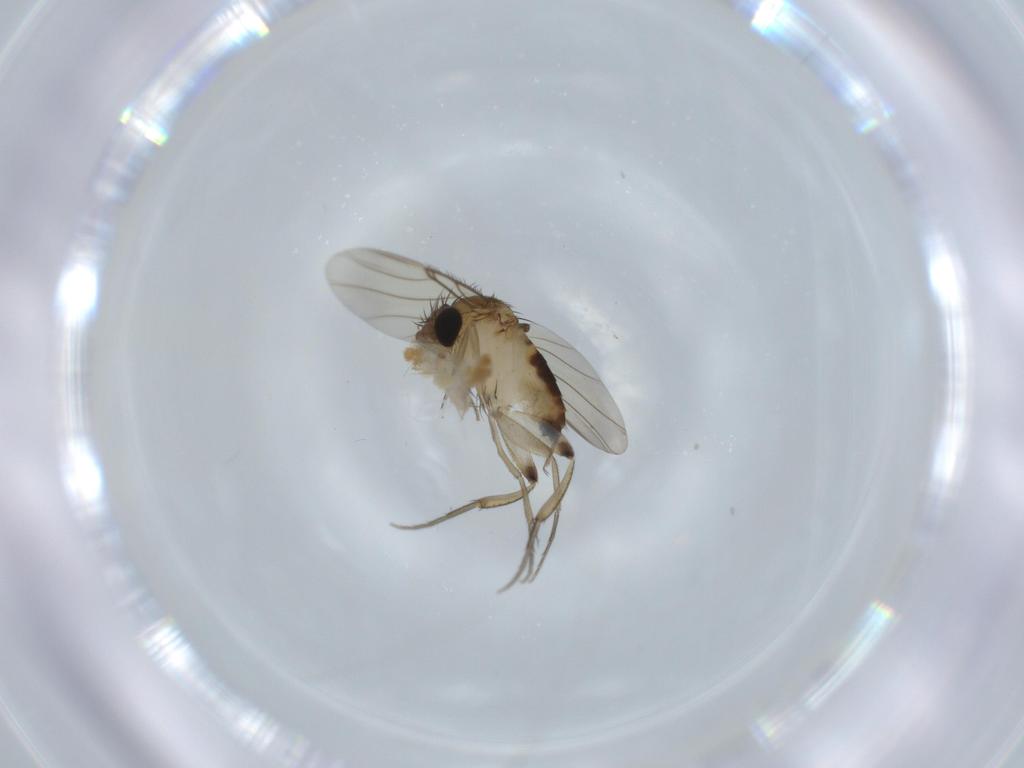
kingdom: Animalia
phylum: Arthropoda
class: Insecta
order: Diptera
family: Phoridae
